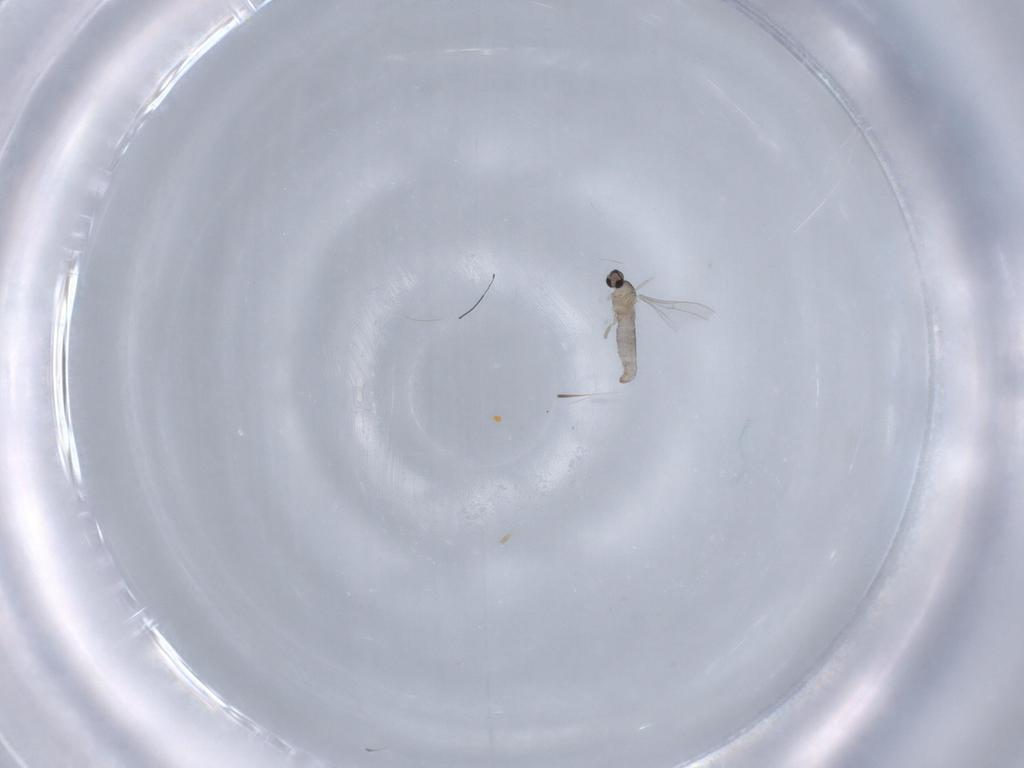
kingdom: Animalia
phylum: Arthropoda
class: Insecta
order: Diptera
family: Cecidomyiidae
